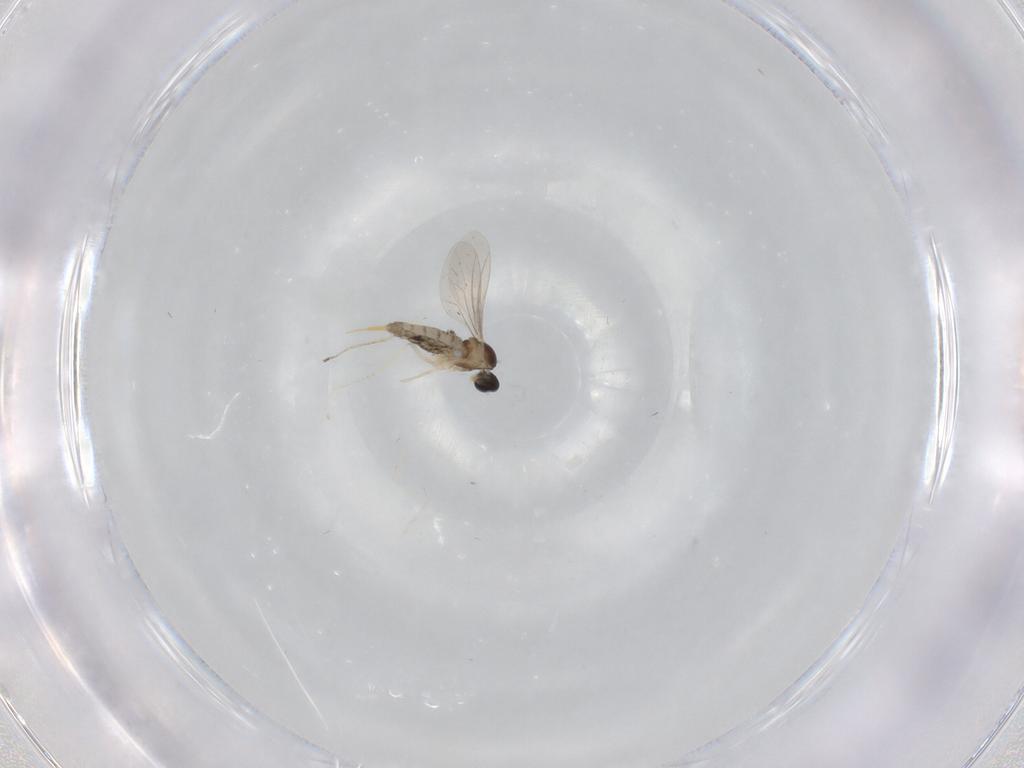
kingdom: Animalia
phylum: Arthropoda
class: Insecta
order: Diptera
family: Cecidomyiidae
